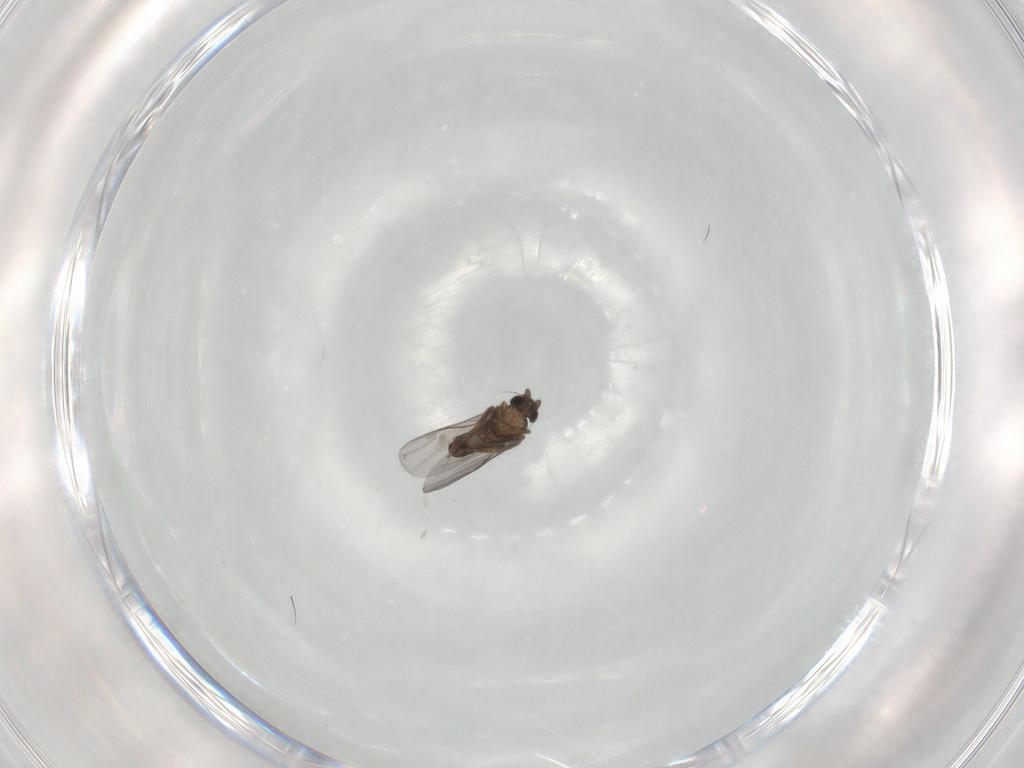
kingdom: Animalia
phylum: Arthropoda
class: Insecta
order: Diptera
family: Cecidomyiidae
